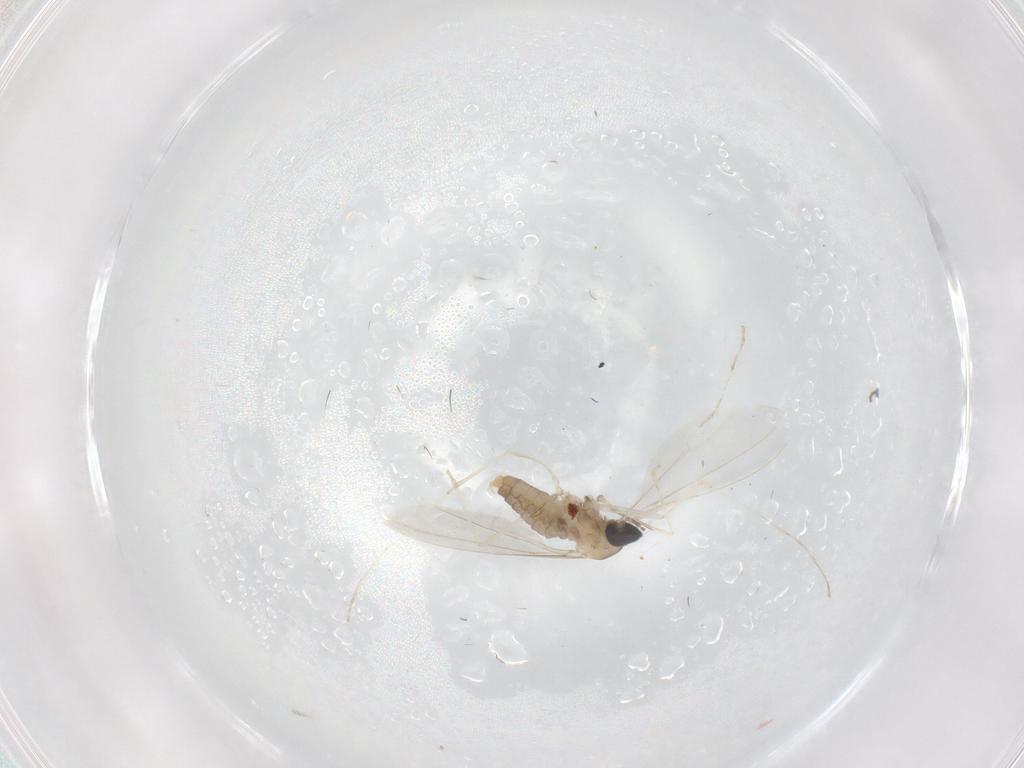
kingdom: Animalia
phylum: Arthropoda
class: Insecta
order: Diptera
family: Cecidomyiidae
